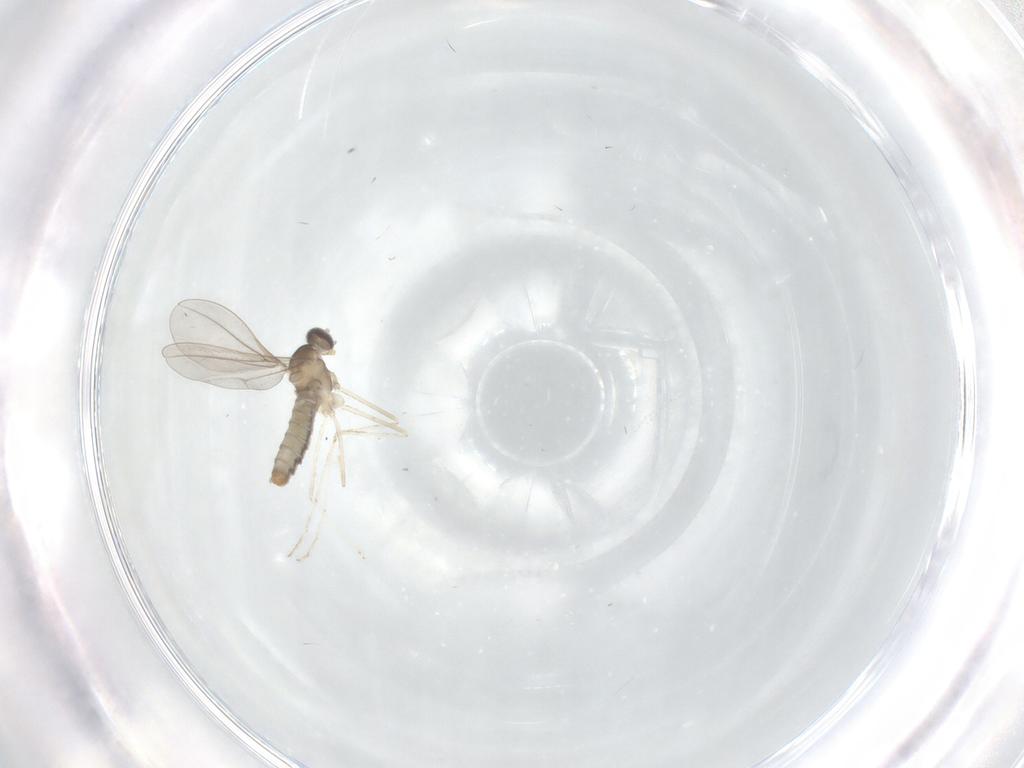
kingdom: Animalia
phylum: Arthropoda
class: Insecta
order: Diptera
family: Cecidomyiidae
